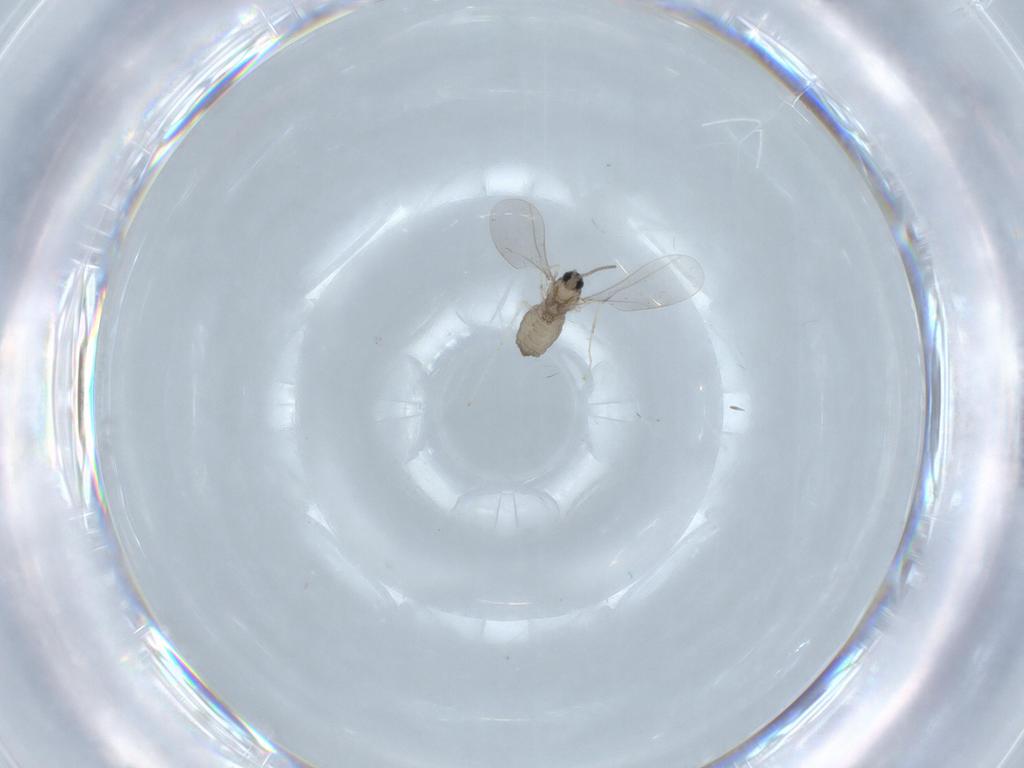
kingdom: Animalia
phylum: Arthropoda
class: Insecta
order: Diptera
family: Cecidomyiidae
